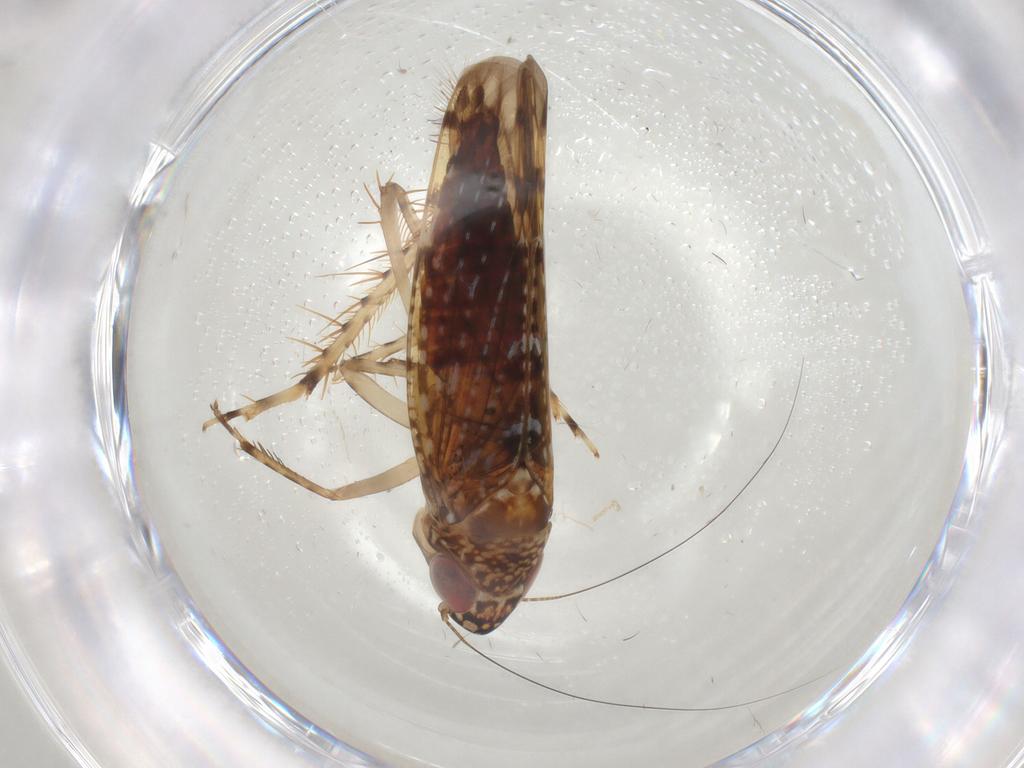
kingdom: Animalia
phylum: Arthropoda
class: Insecta
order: Hemiptera
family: Cicadellidae
